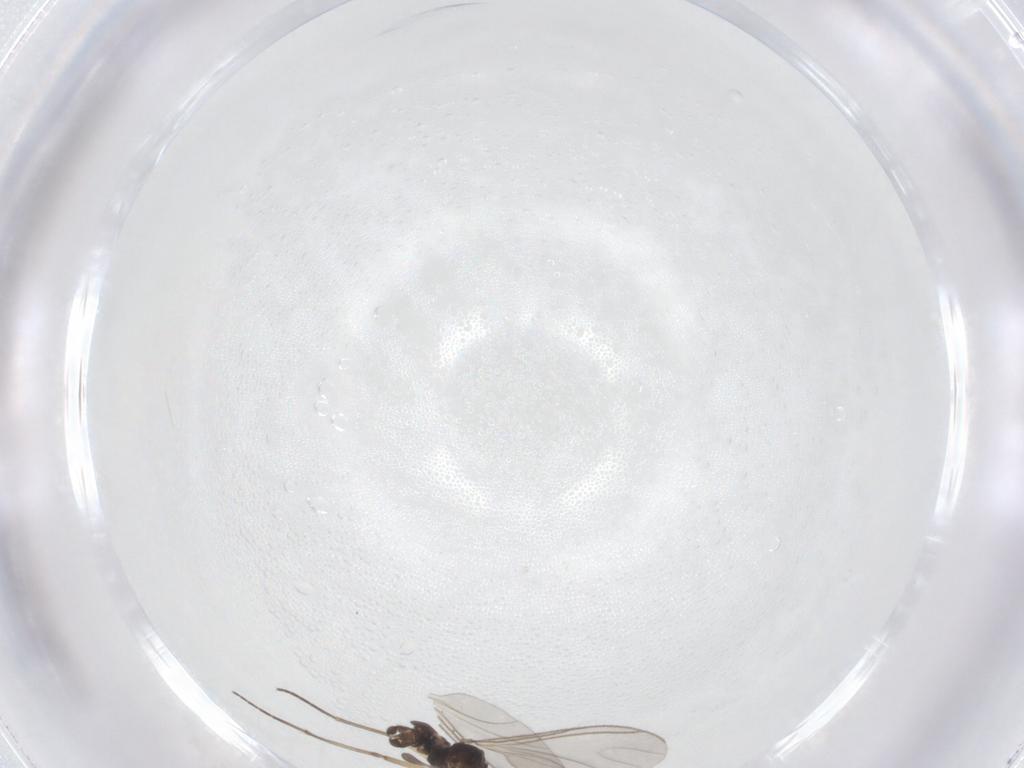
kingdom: Animalia
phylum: Arthropoda
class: Insecta
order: Diptera
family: Sciaridae
